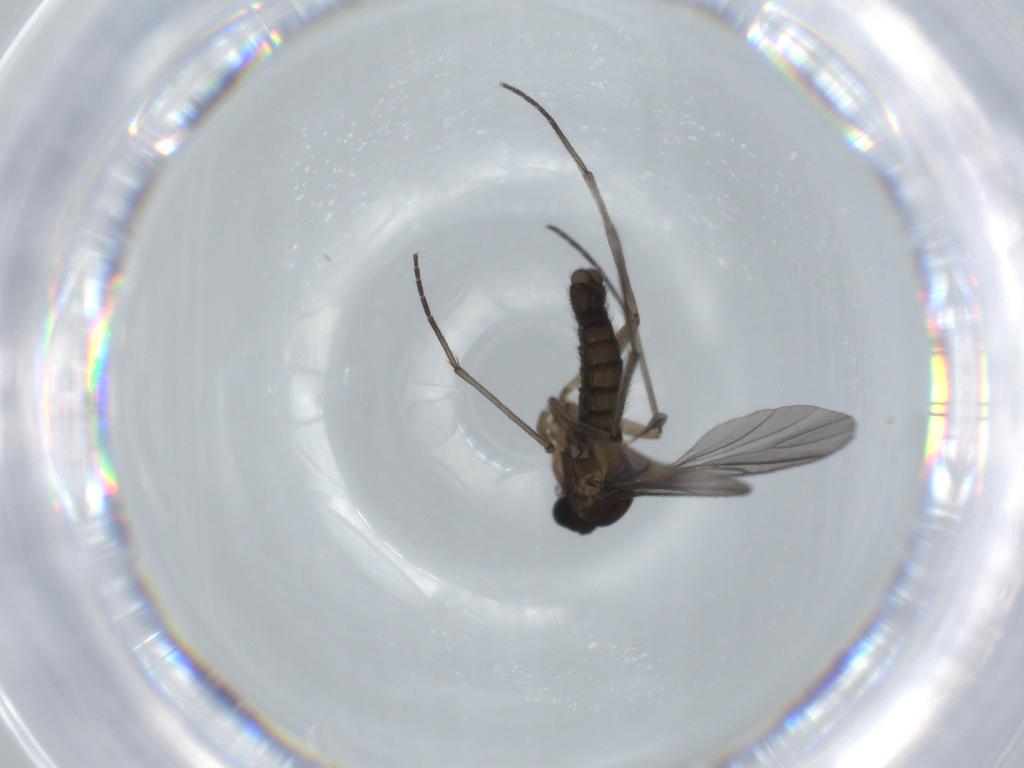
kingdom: Animalia
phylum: Arthropoda
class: Insecta
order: Diptera
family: Sciaridae
